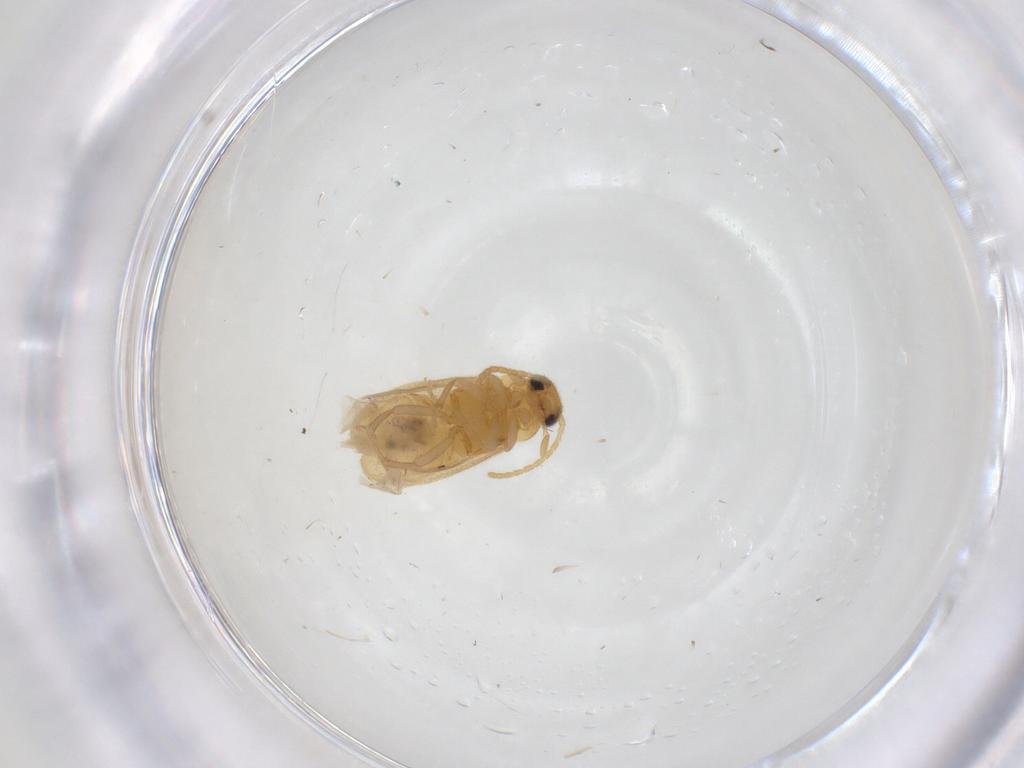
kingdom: Animalia
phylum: Arthropoda
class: Insecta
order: Coleoptera
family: Scraptiidae
